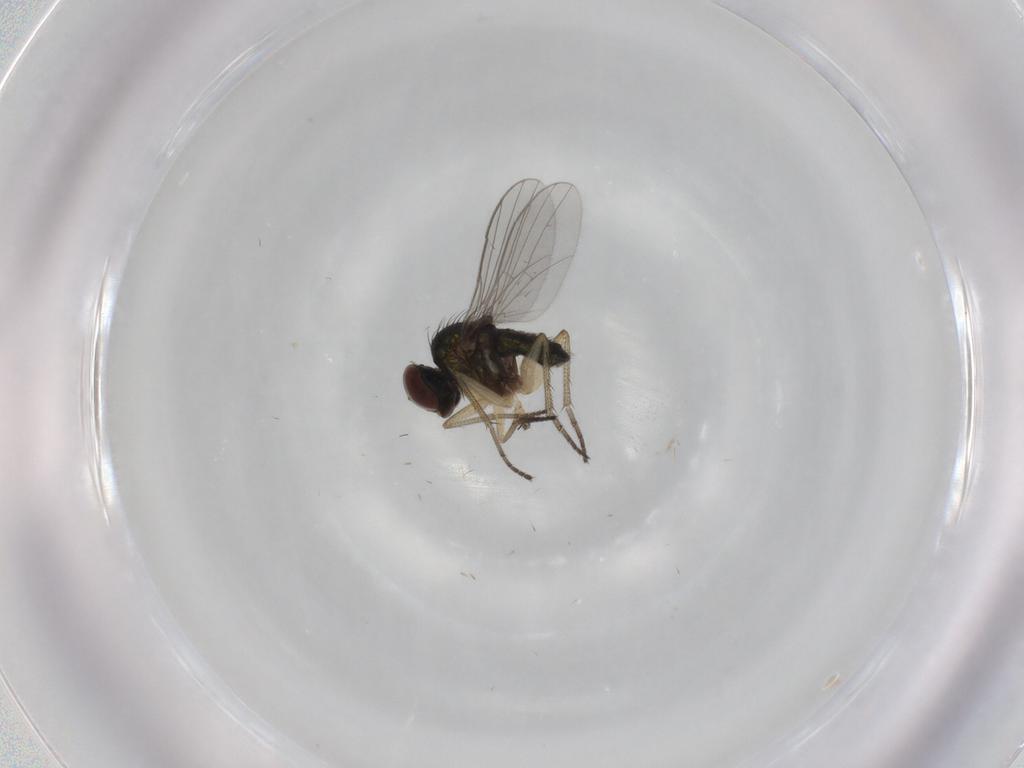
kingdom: Animalia
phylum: Arthropoda
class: Insecta
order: Diptera
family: Dolichopodidae
